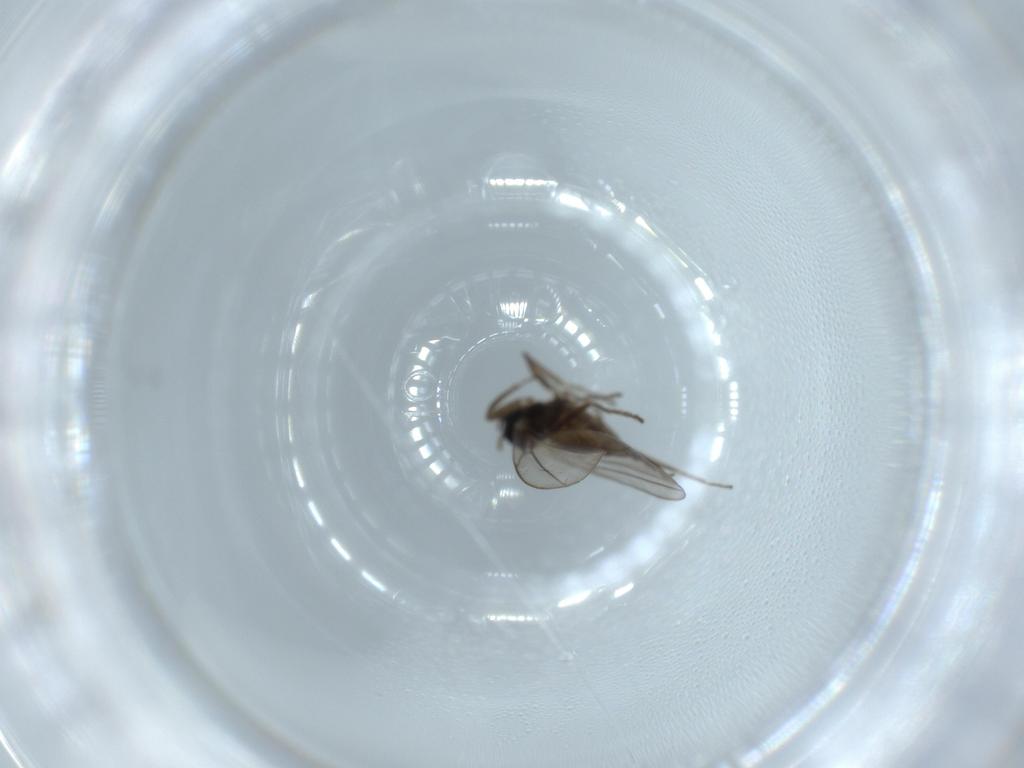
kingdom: Animalia
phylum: Arthropoda
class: Insecta
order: Diptera
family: Cecidomyiidae
